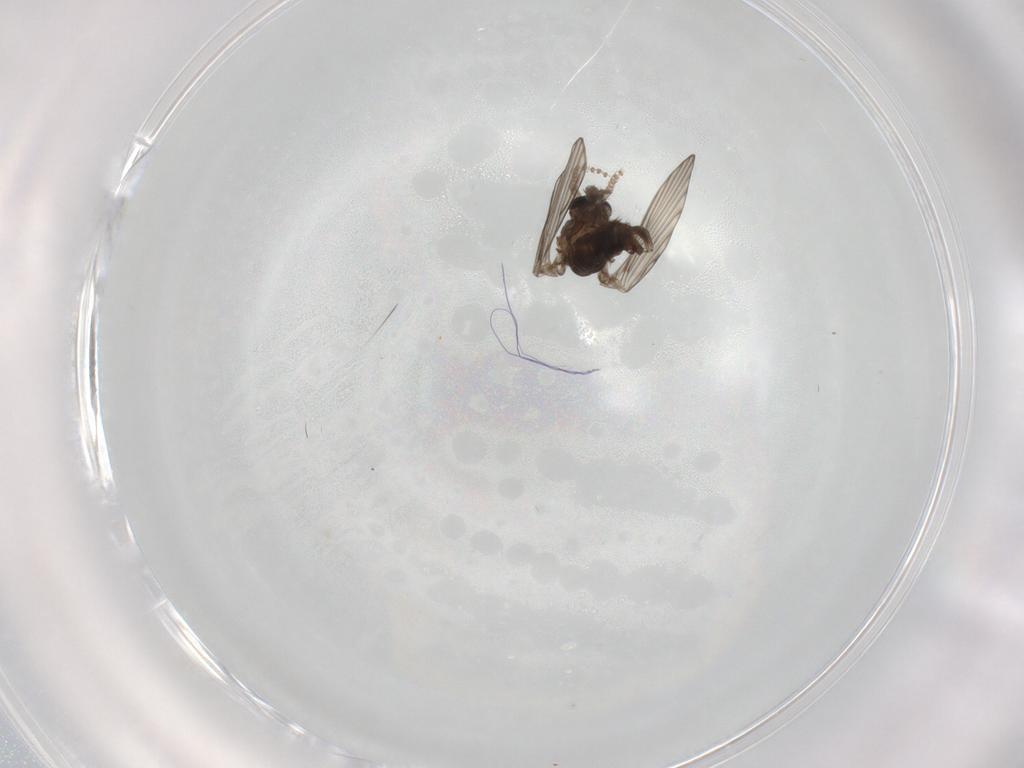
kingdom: Animalia
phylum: Arthropoda
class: Insecta
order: Diptera
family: Psychodidae
